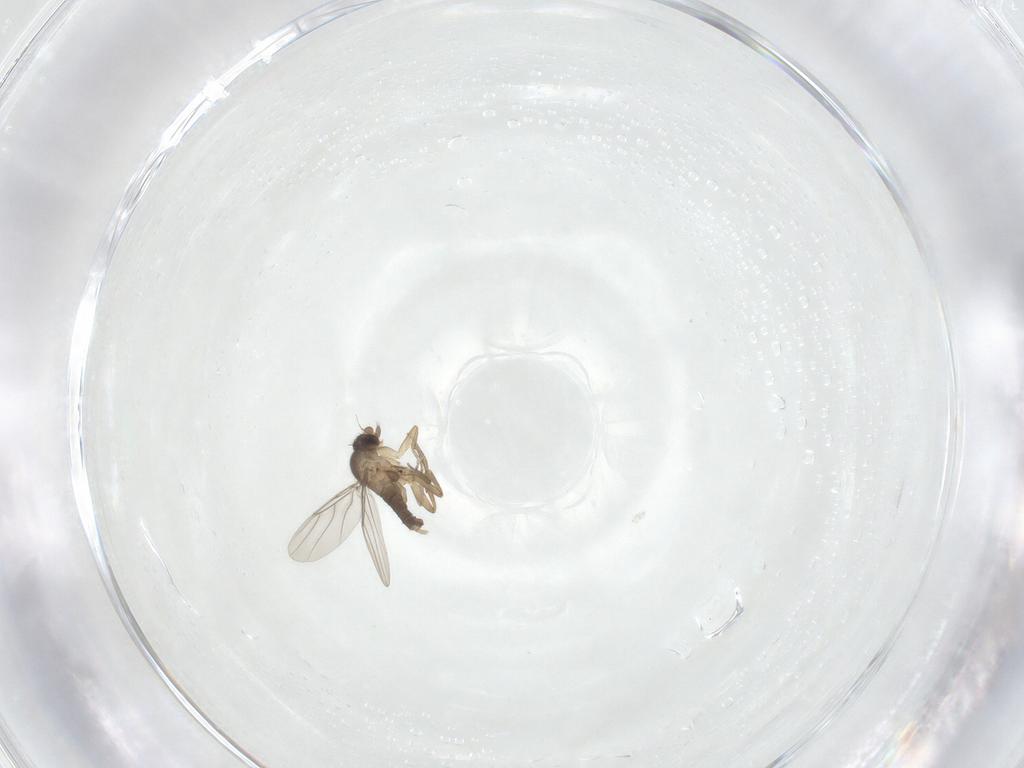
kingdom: Animalia
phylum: Arthropoda
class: Insecta
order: Diptera
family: Phoridae
